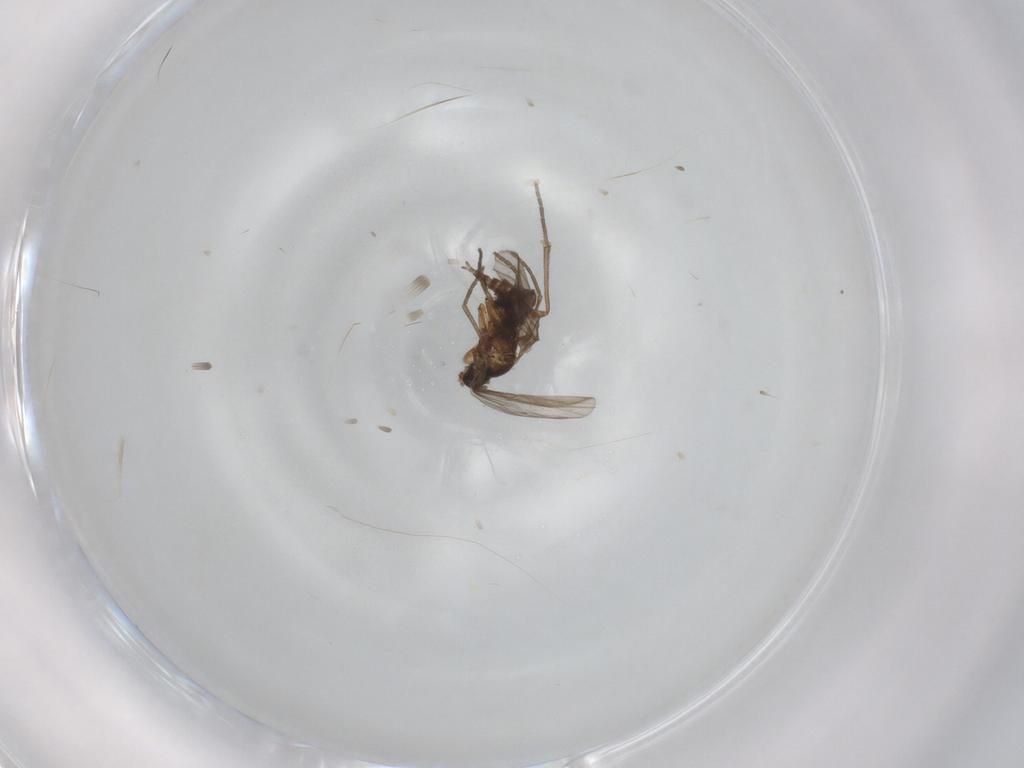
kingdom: Animalia
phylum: Arthropoda
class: Insecta
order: Diptera
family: Sciaridae
